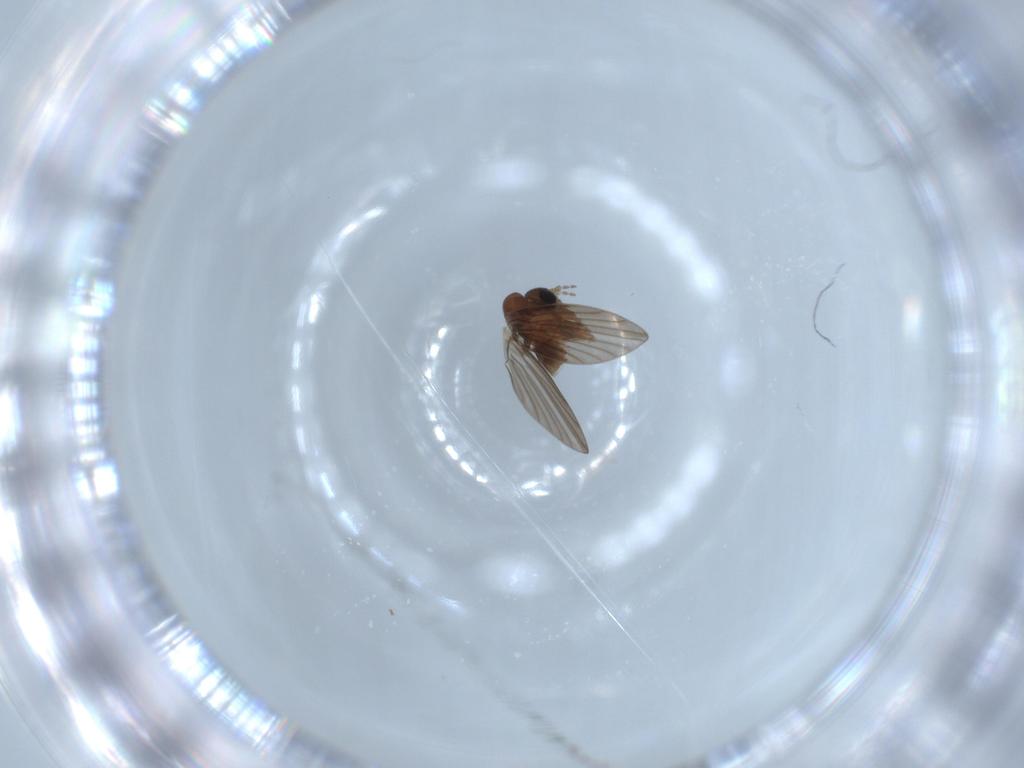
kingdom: Animalia
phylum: Arthropoda
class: Insecta
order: Diptera
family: Psychodidae
